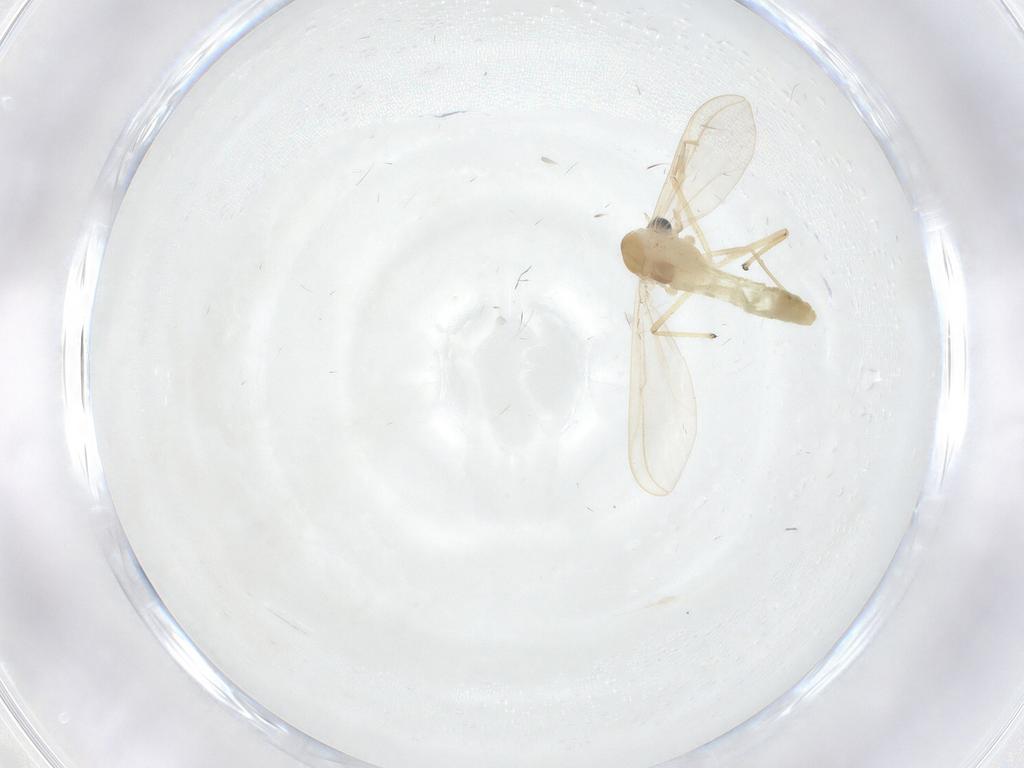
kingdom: Animalia
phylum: Arthropoda
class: Insecta
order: Diptera
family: Chironomidae
